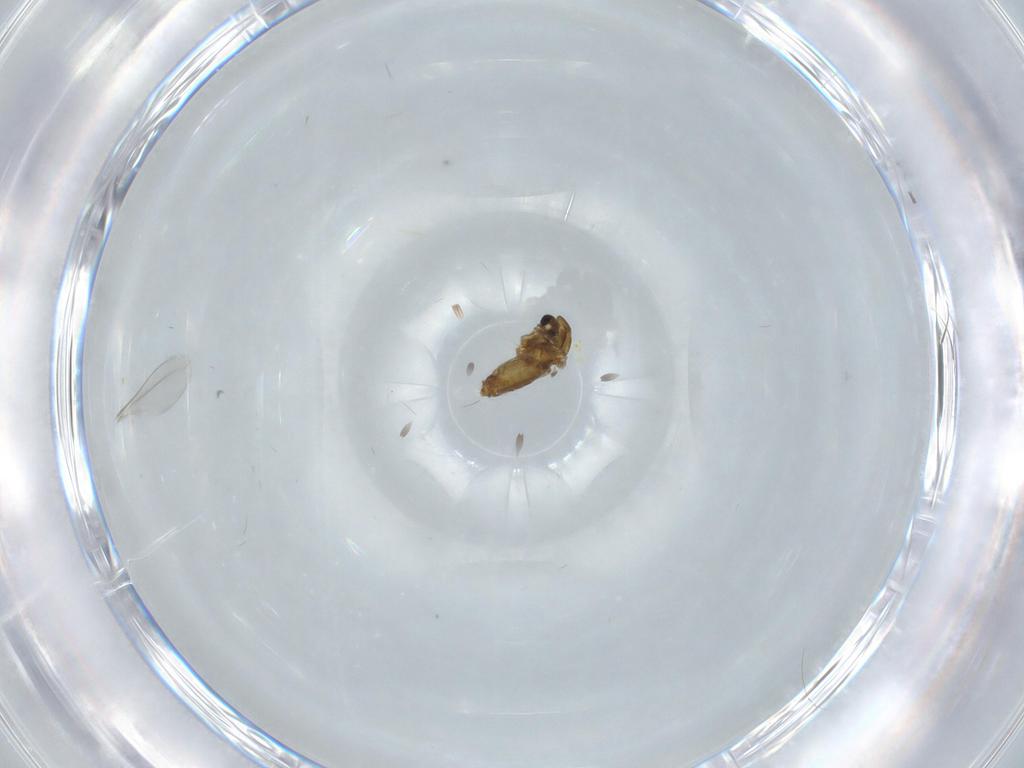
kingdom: Animalia
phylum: Arthropoda
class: Insecta
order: Diptera
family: Chironomidae
